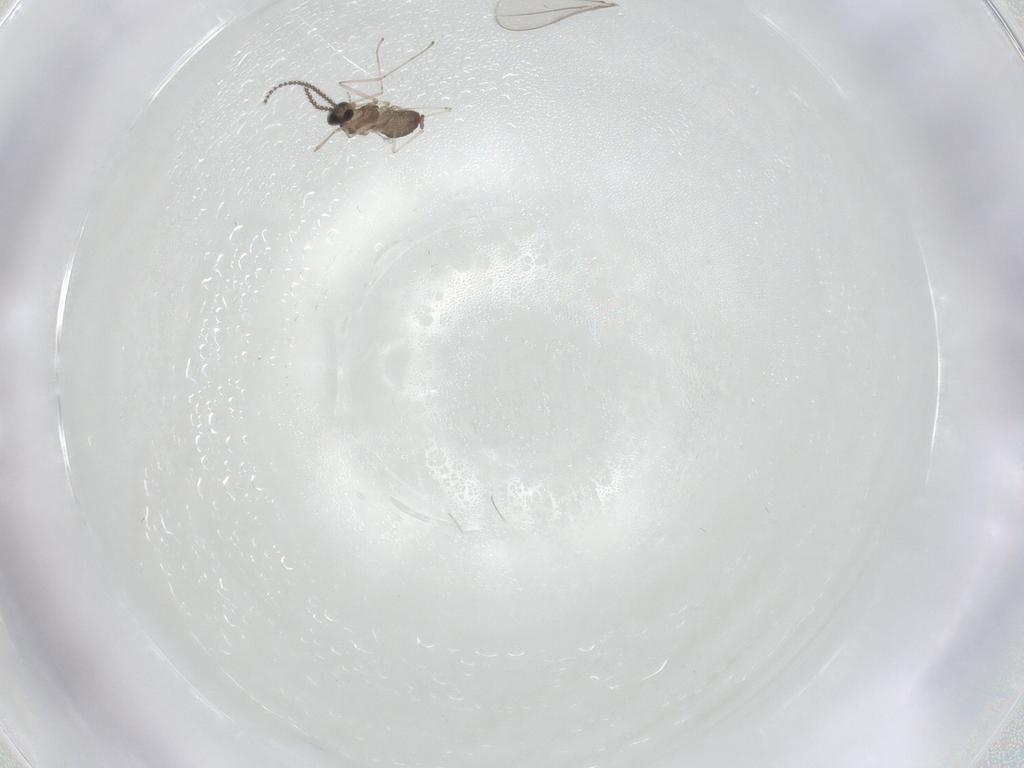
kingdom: Animalia
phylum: Arthropoda
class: Insecta
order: Diptera
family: Cecidomyiidae
